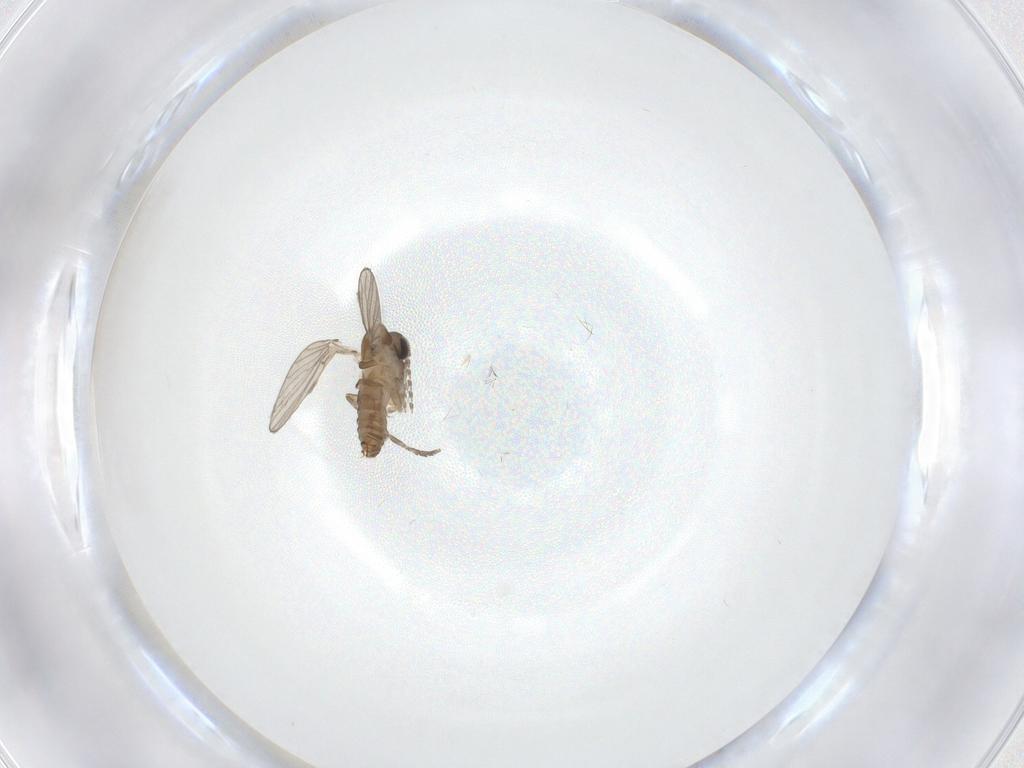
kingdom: Animalia
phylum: Arthropoda
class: Insecta
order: Diptera
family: Psychodidae
